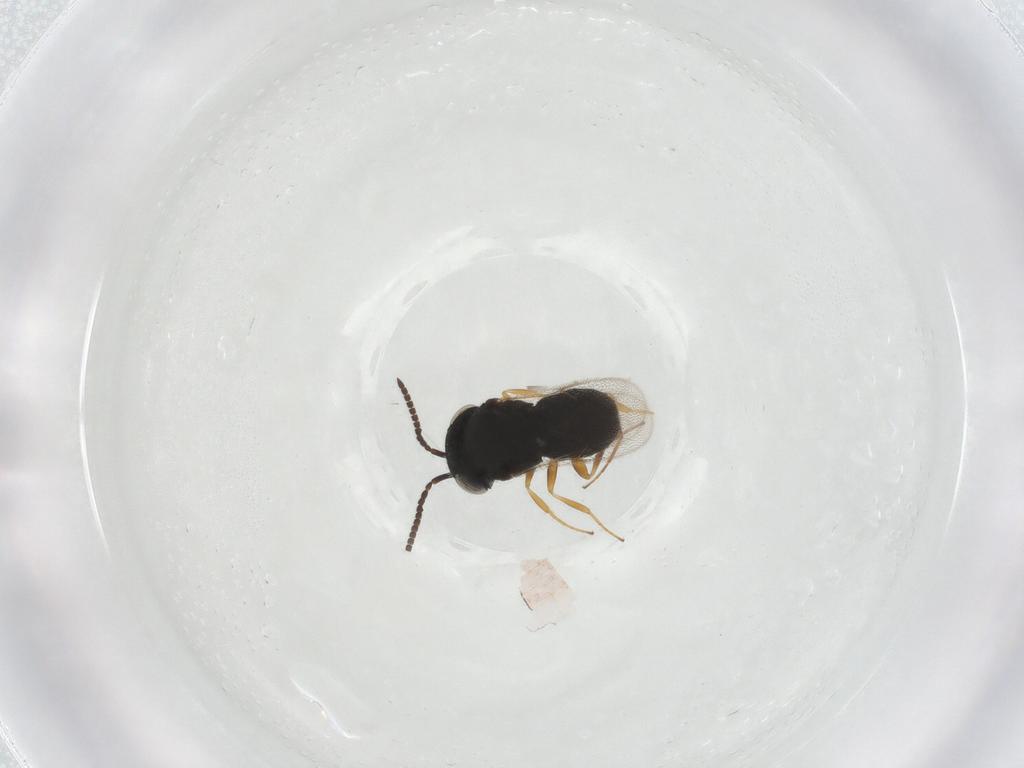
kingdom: Animalia
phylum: Arthropoda
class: Insecta
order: Hymenoptera
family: Scelionidae
